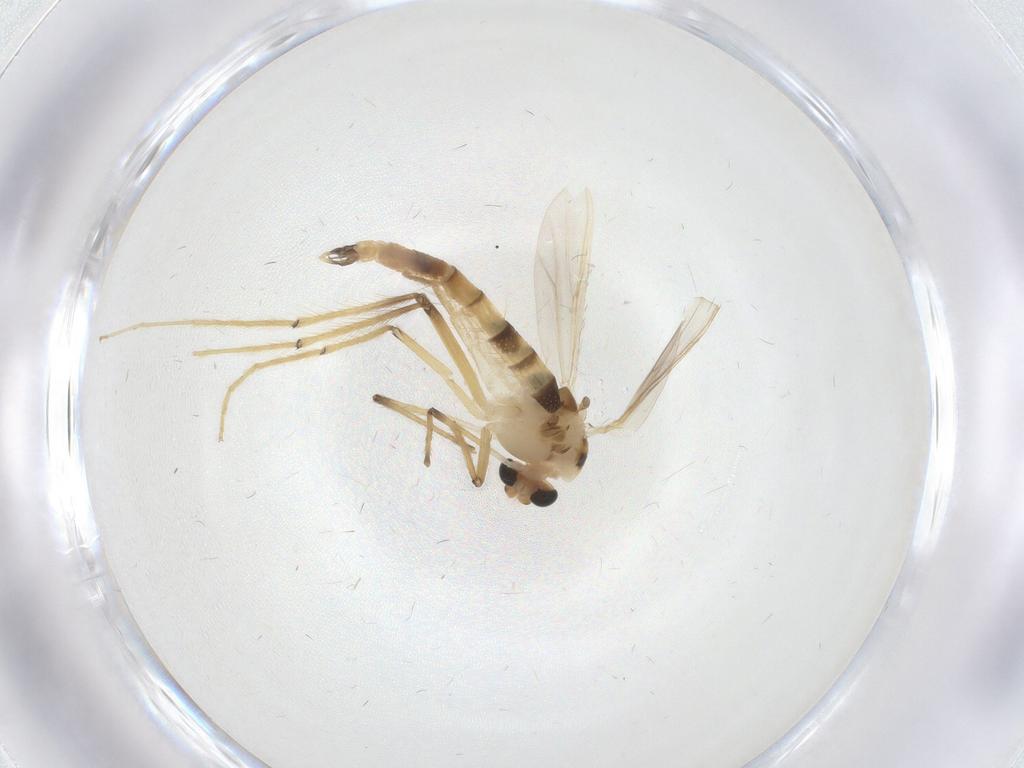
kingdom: Animalia
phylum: Arthropoda
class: Insecta
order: Diptera
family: Chironomidae
